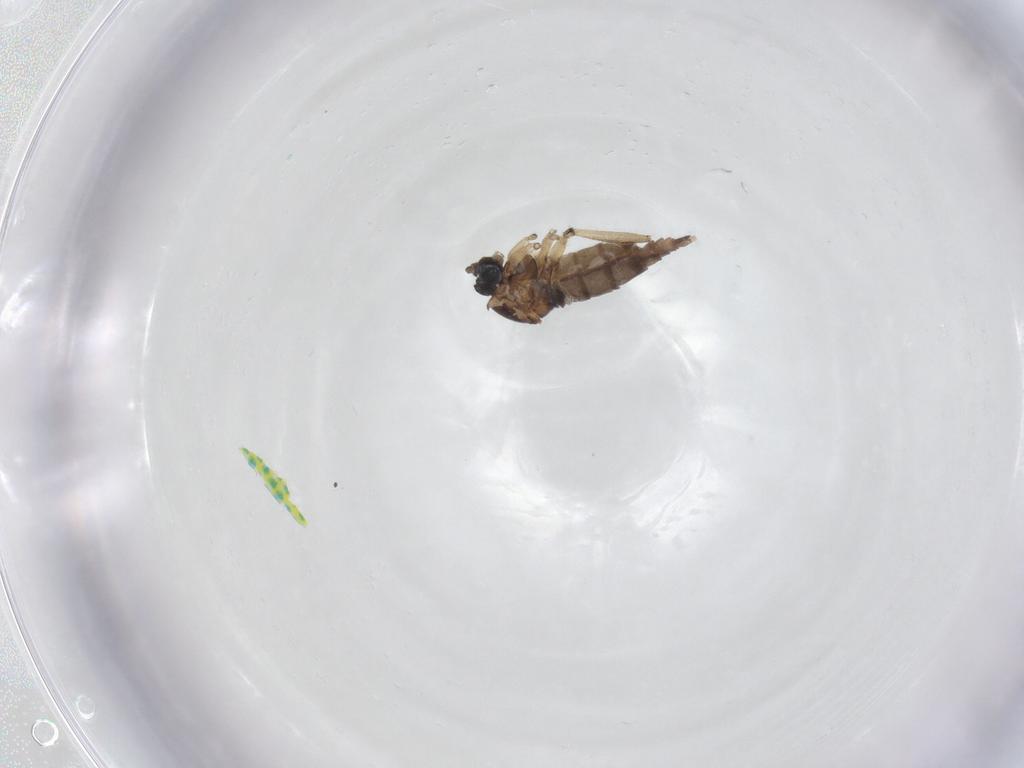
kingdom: Animalia
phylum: Arthropoda
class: Insecta
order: Diptera
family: Sciaridae
